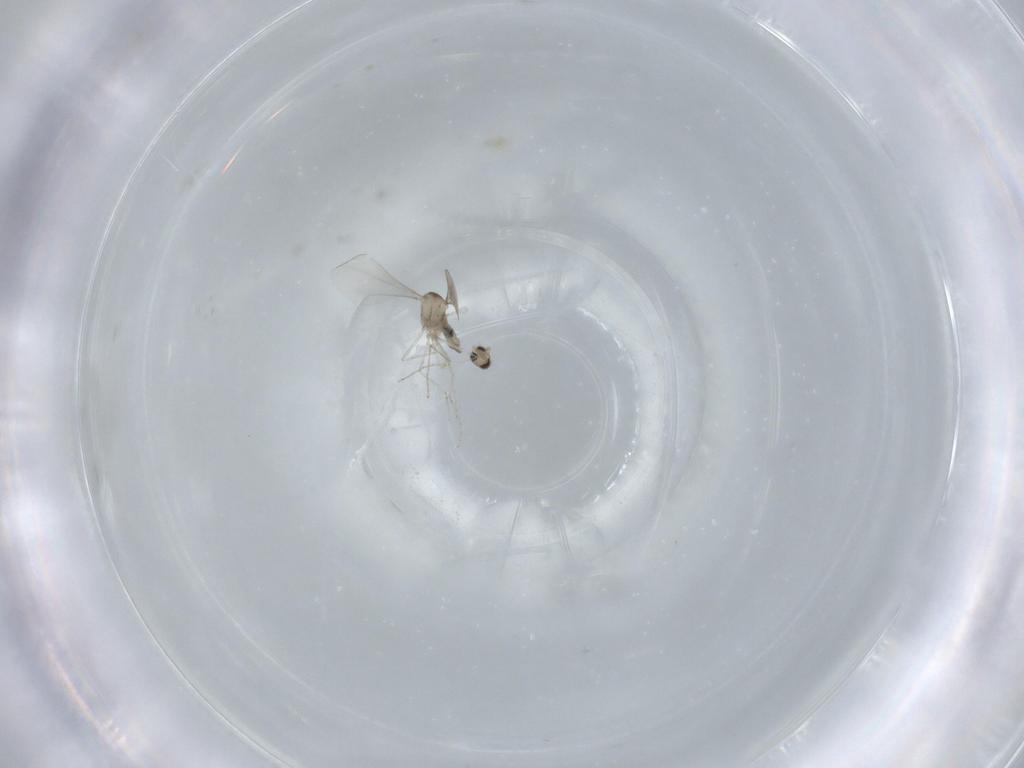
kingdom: Animalia
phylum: Arthropoda
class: Insecta
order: Diptera
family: Cecidomyiidae
